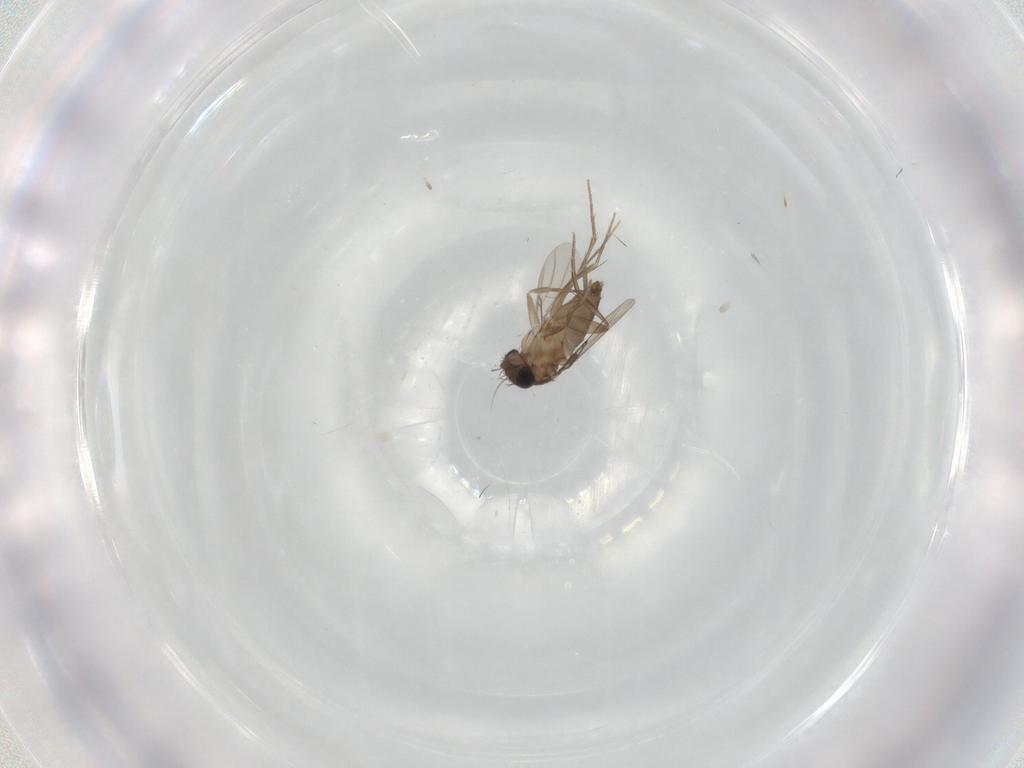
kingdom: Animalia
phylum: Arthropoda
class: Insecta
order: Diptera
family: Phoridae
